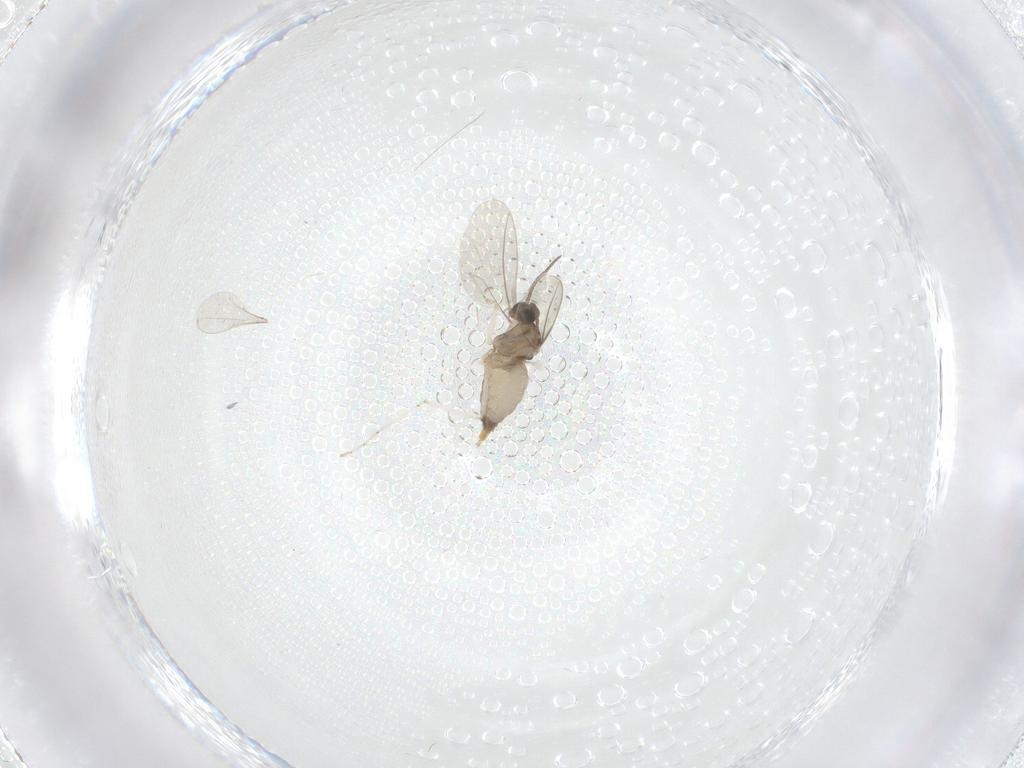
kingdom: Animalia
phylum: Arthropoda
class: Insecta
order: Diptera
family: Cecidomyiidae
